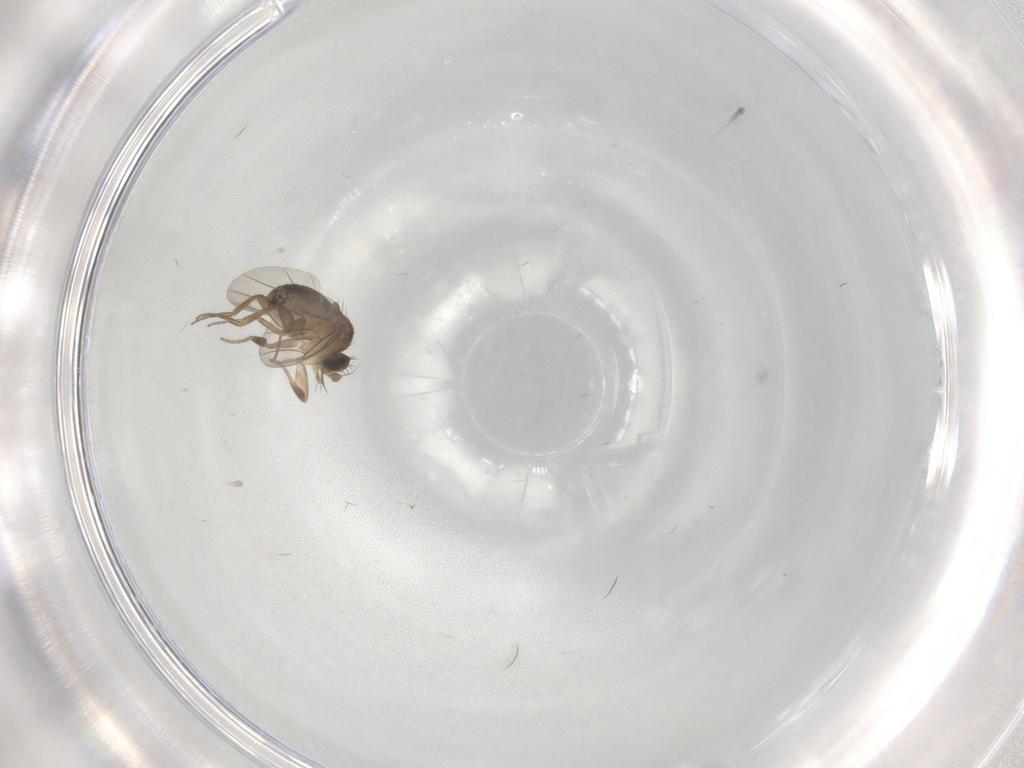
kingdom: Animalia
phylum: Arthropoda
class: Insecta
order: Diptera
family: Phoridae
